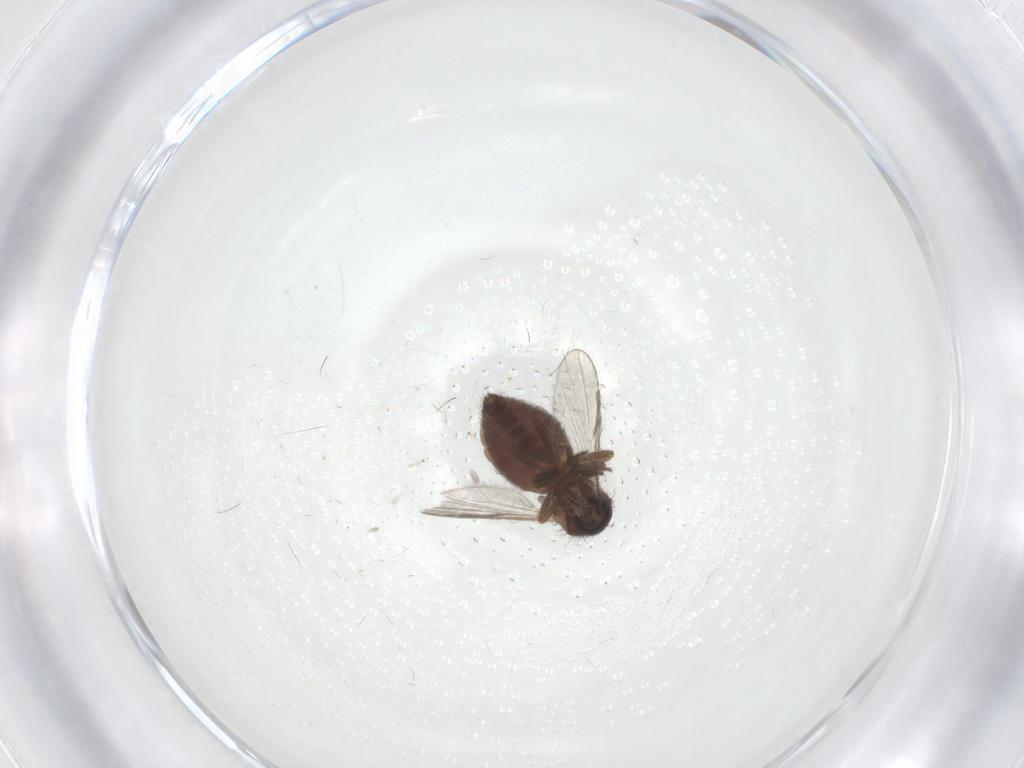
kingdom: Animalia
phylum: Arthropoda
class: Insecta
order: Diptera
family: Ceratopogonidae
